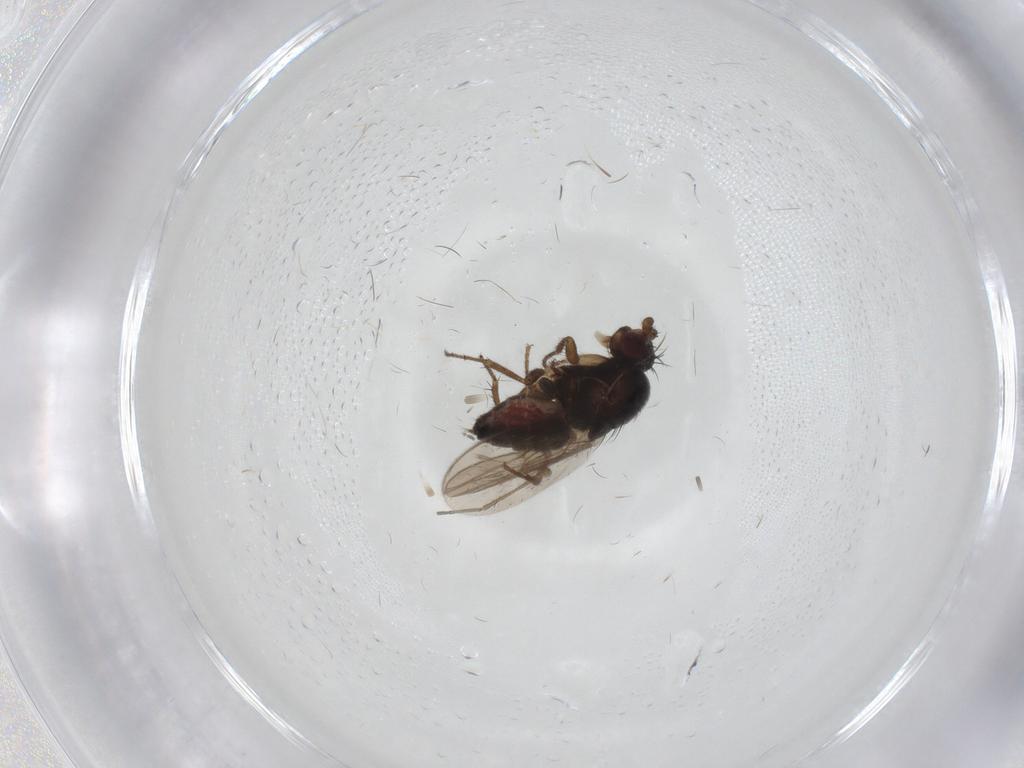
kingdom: Animalia
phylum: Arthropoda
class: Insecta
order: Diptera
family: Sphaeroceridae
